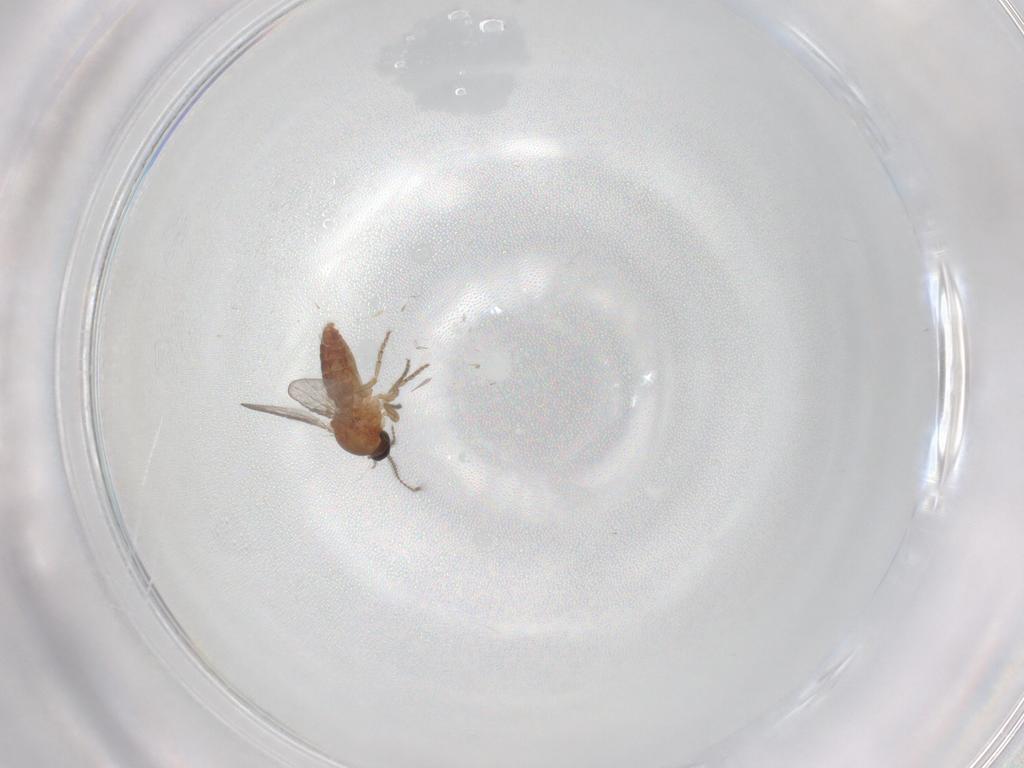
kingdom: Animalia
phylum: Arthropoda
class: Insecta
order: Diptera
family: Ceratopogonidae
